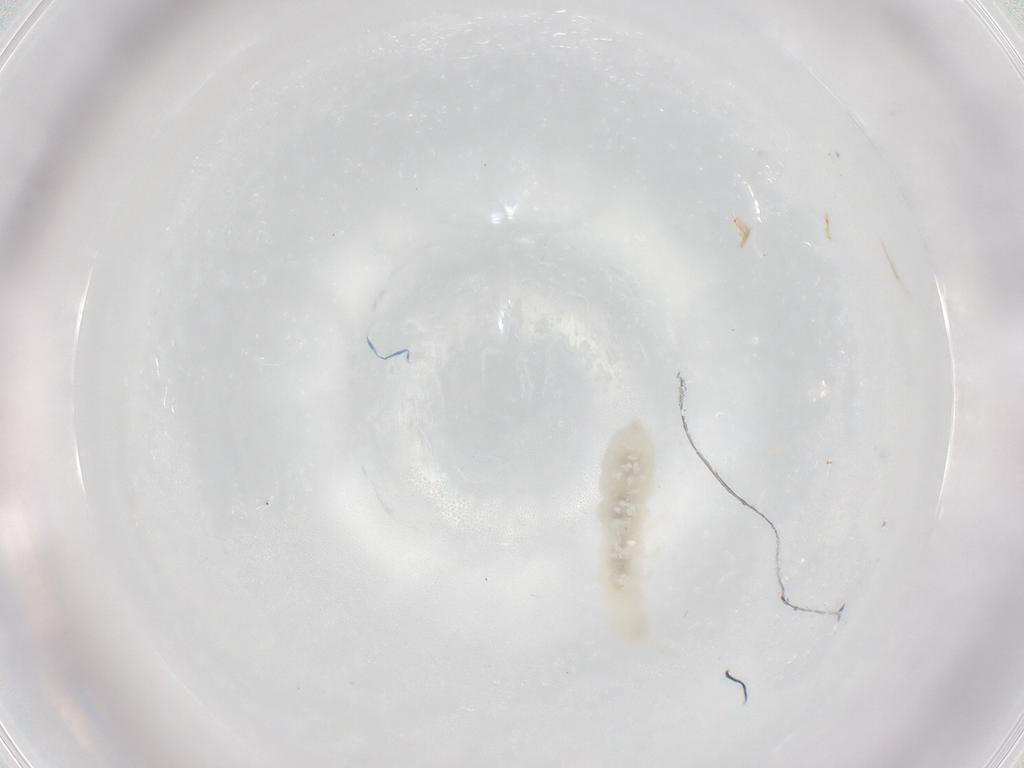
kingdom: Animalia
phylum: Arthropoda
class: Collembola
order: Poduromorpha
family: Onychiuridae
